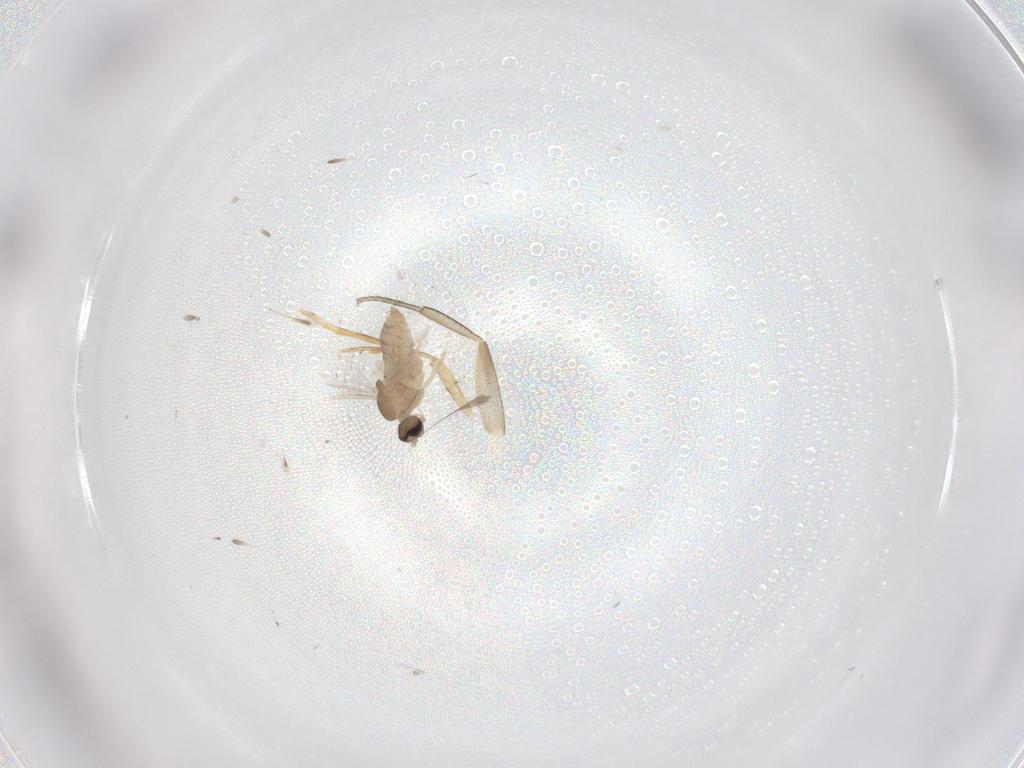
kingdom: Animalia
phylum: Arthropoda
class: Insecta
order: Diptera
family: Phoridae
